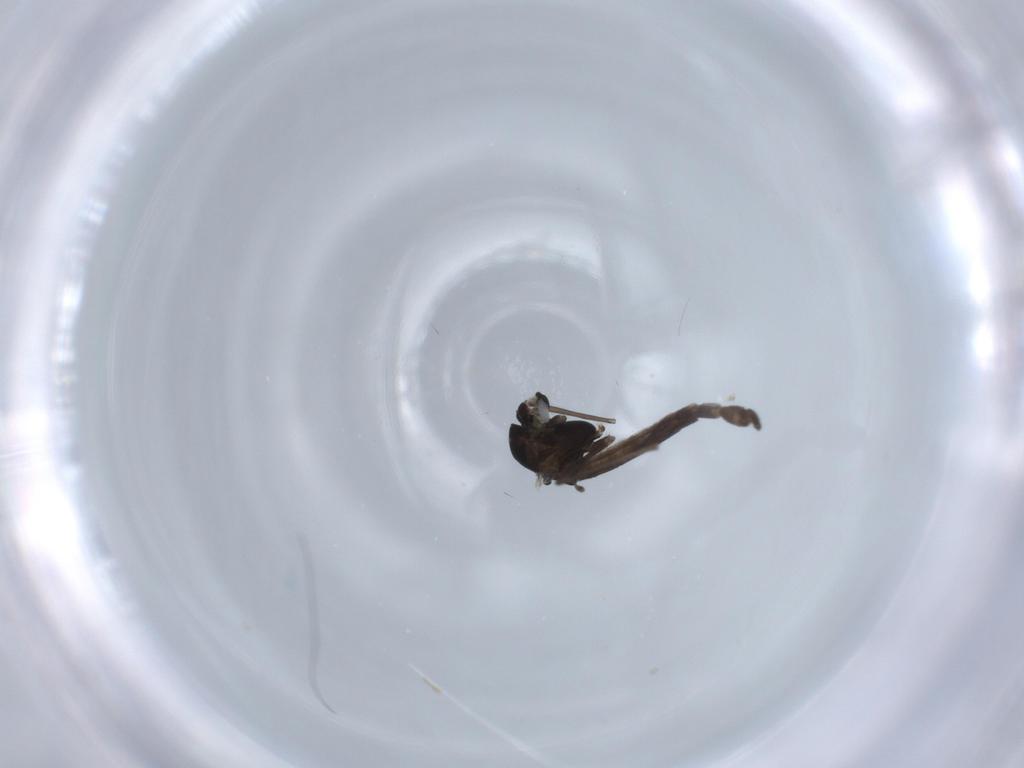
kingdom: Animalia
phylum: Arthropoda
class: Insecta
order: Diptera
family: Chironomidae
